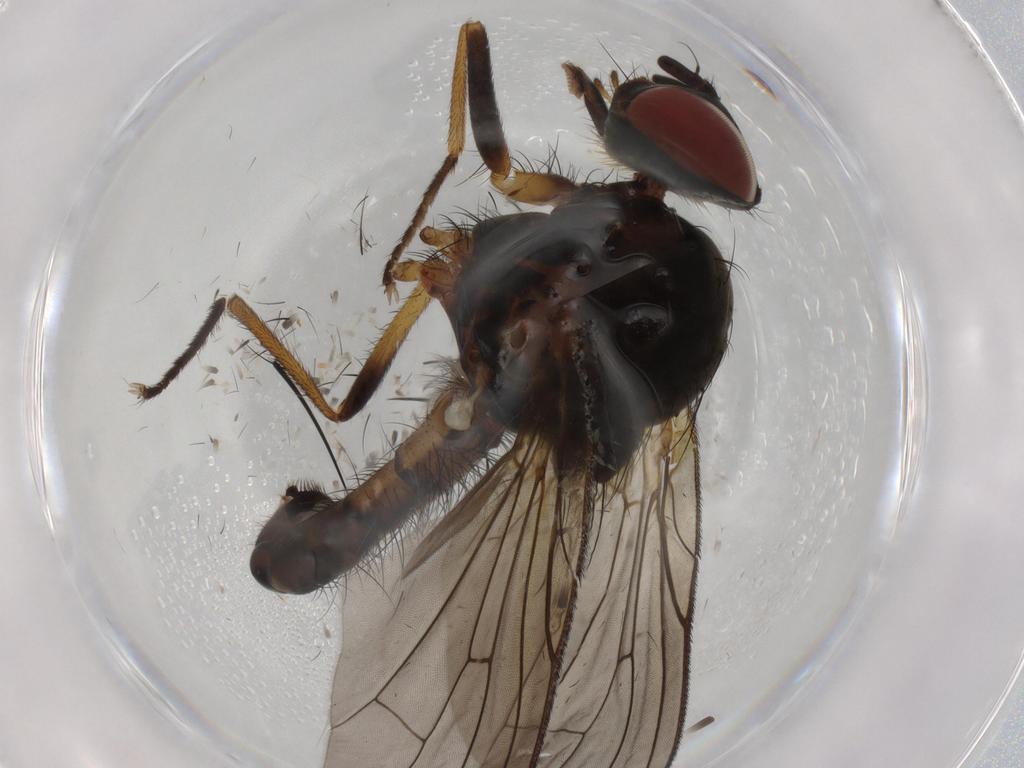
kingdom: Animalia
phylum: Arthropoda
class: Insecta
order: Diptera
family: Anthomyiidae
